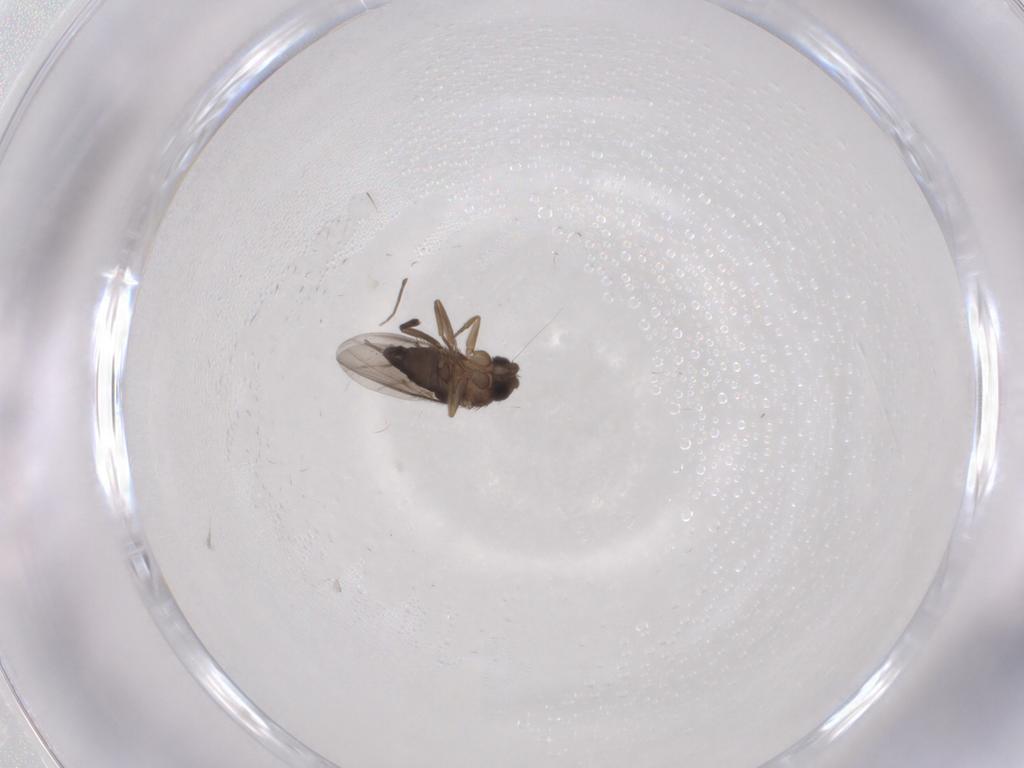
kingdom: Animalia
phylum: Arthropoda
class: Insecta
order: Diptera
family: Phoridae
